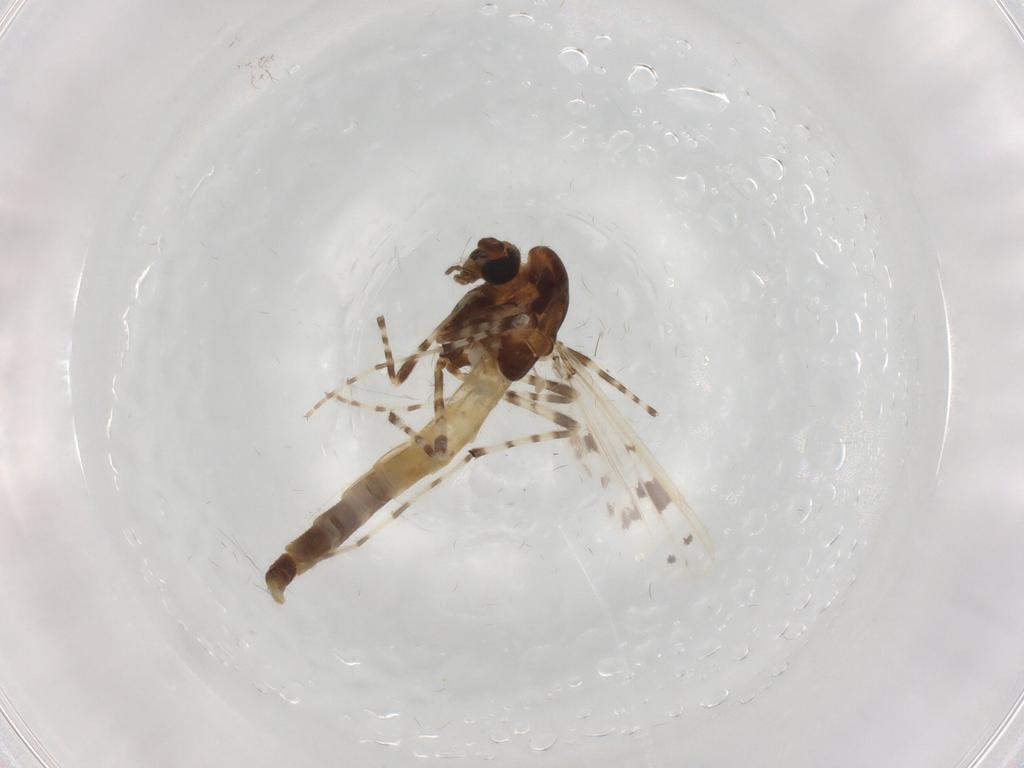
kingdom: Animalia
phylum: Arthropoda
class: Insecta
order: Diptera
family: Chironomidae
